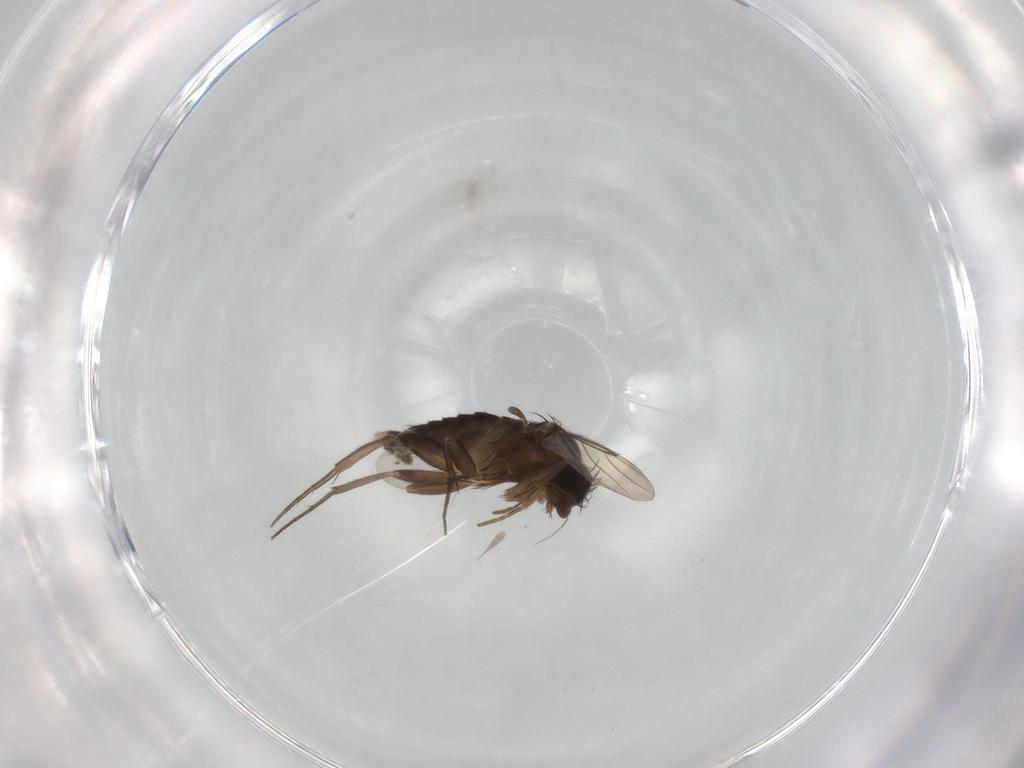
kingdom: Animalia
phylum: Arthropoda
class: Insecta
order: Diptera
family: Phoridae
